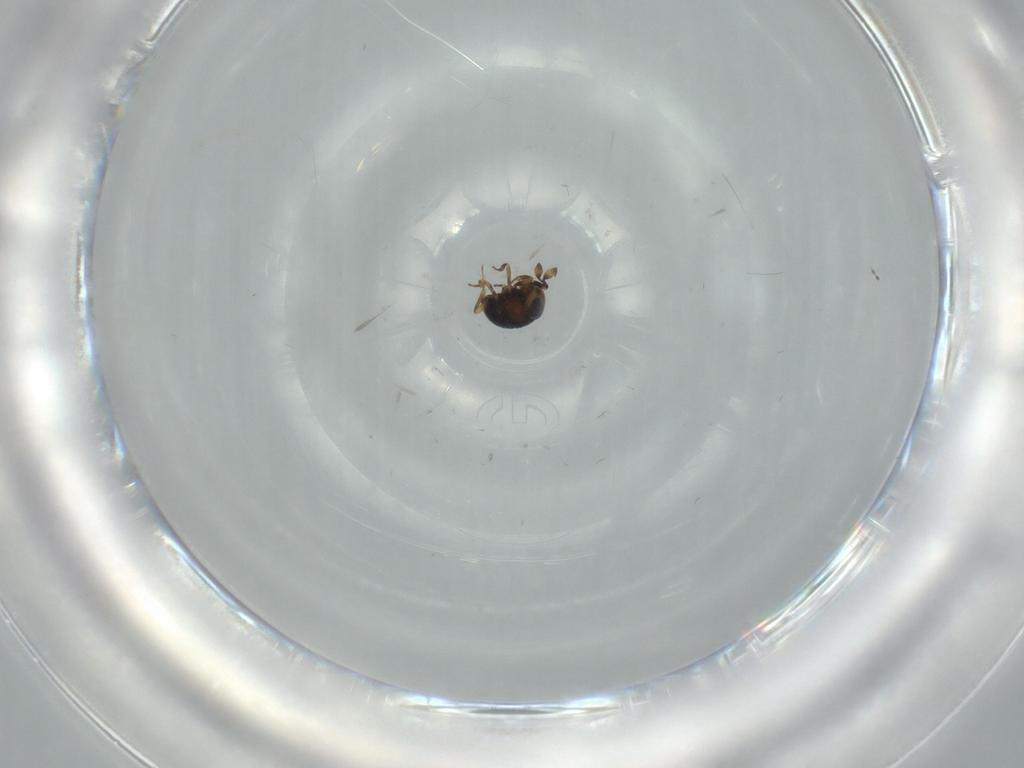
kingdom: Animalia
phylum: Arthropoda
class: Insecta
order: Hymenoptera
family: Scelionidae
